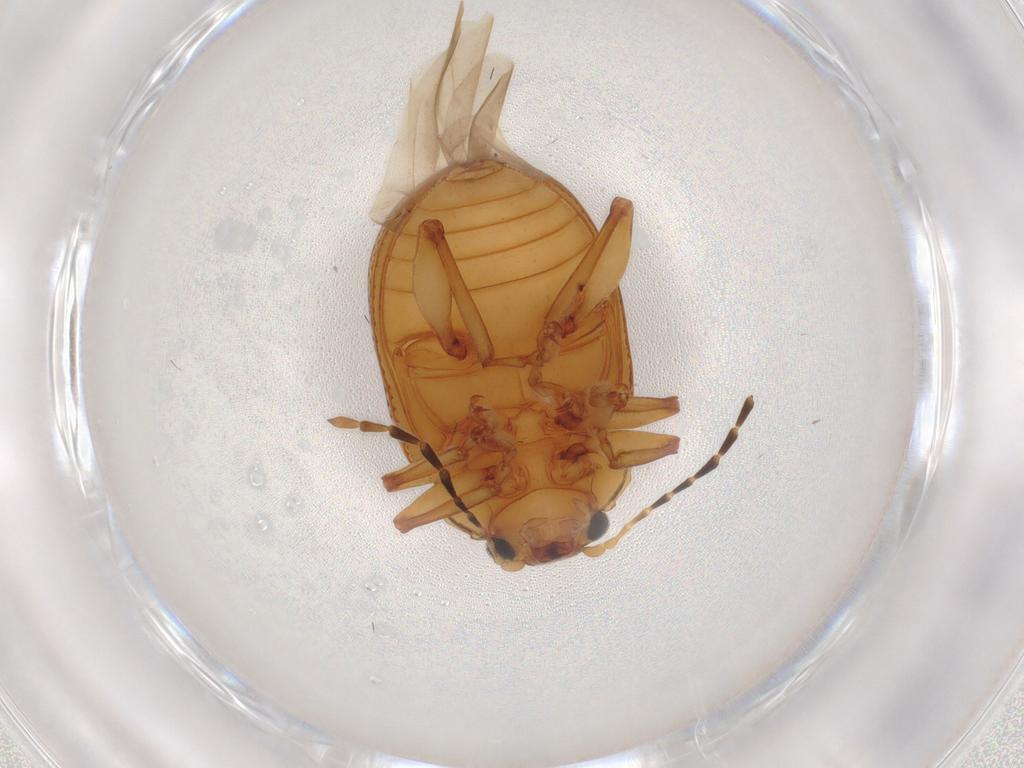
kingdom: Animalia
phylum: Arthropoda
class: Insecta
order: Coleoptera
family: Chrysomelidae
